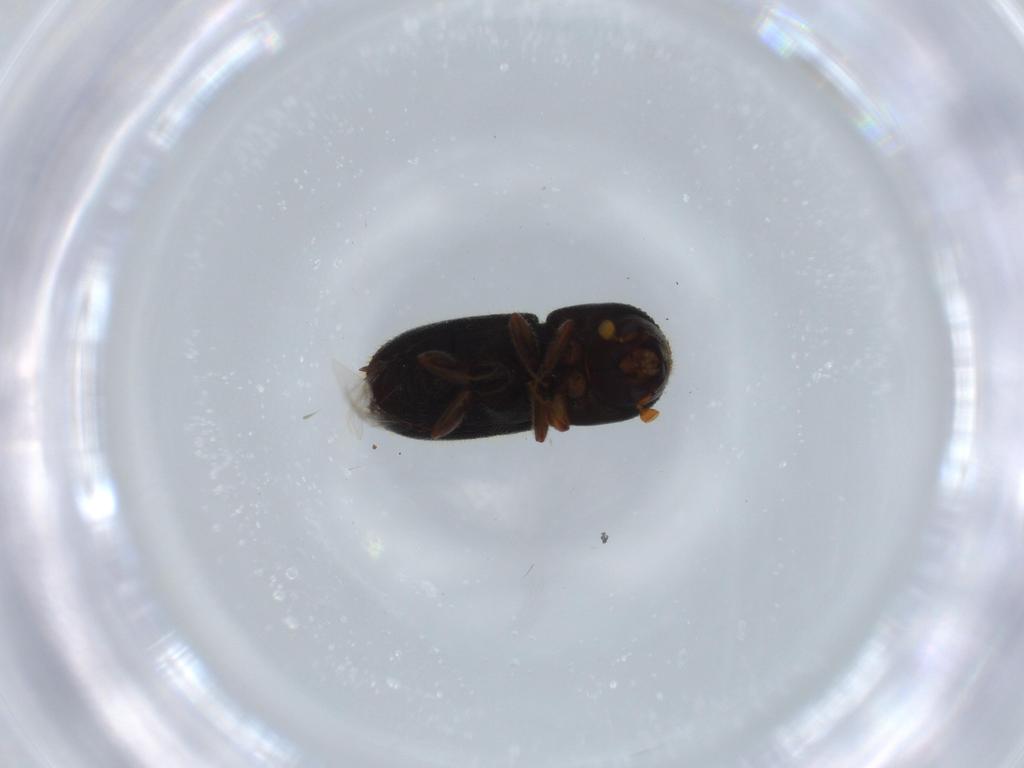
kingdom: Animalia
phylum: Arthropoda
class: Insecta
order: Coleoptera
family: Curculionidae
